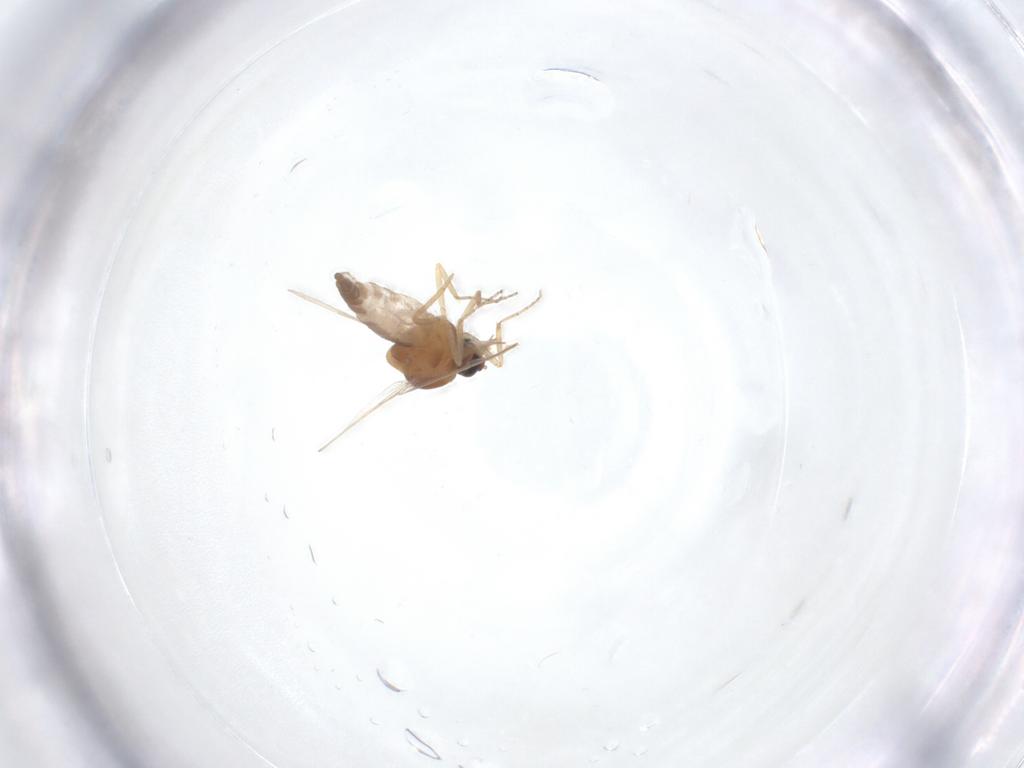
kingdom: Animalia
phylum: Arthropoda
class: Insecta
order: Diptera
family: Ceratopogonidae
